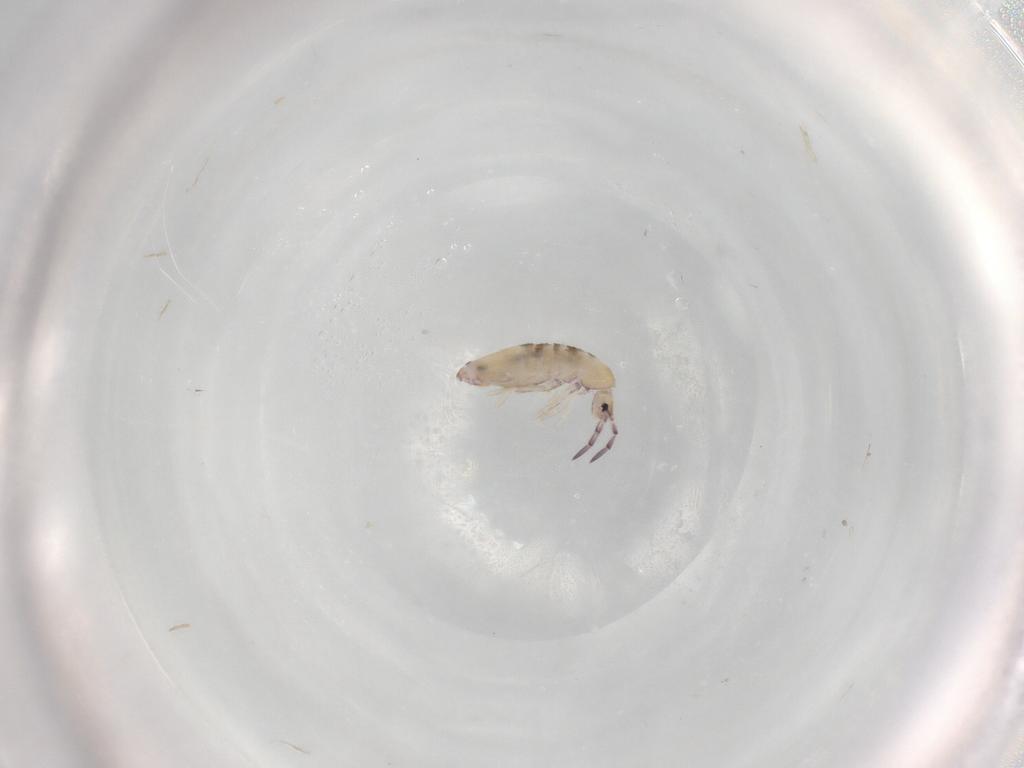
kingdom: Animalia
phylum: Arthropoda
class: Collembola
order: Entomobryomorpha
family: Entomobryidae
